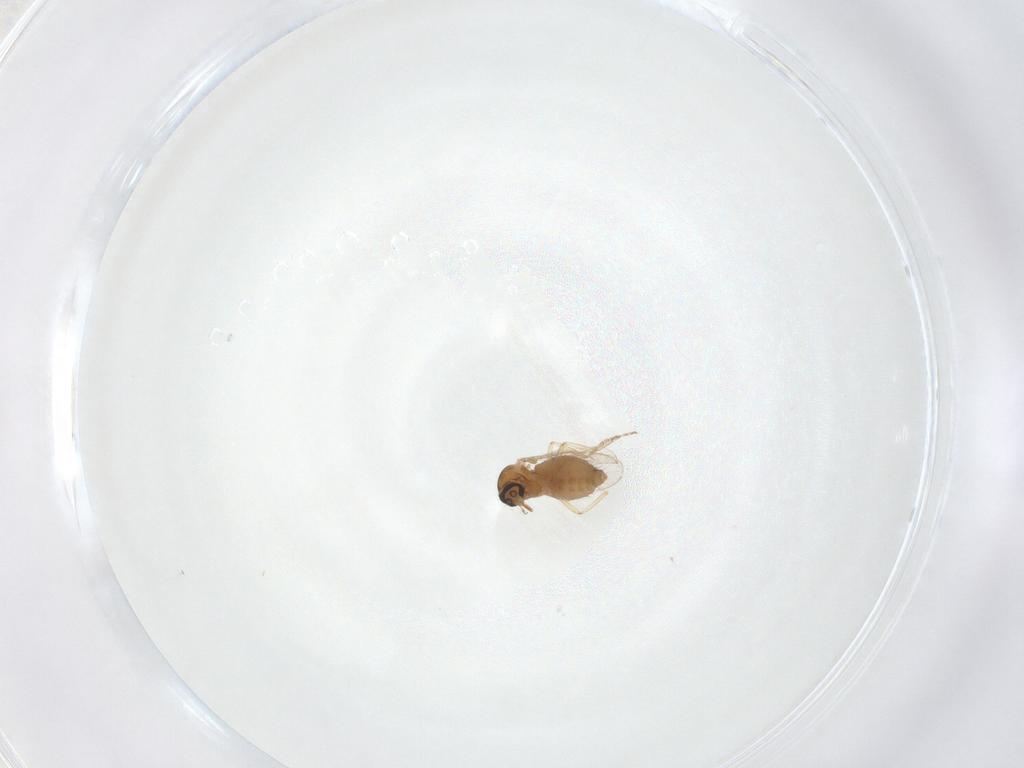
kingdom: Animalia
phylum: Arthropoda
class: Insecta
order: Diptera
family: Ceratopogonidae
